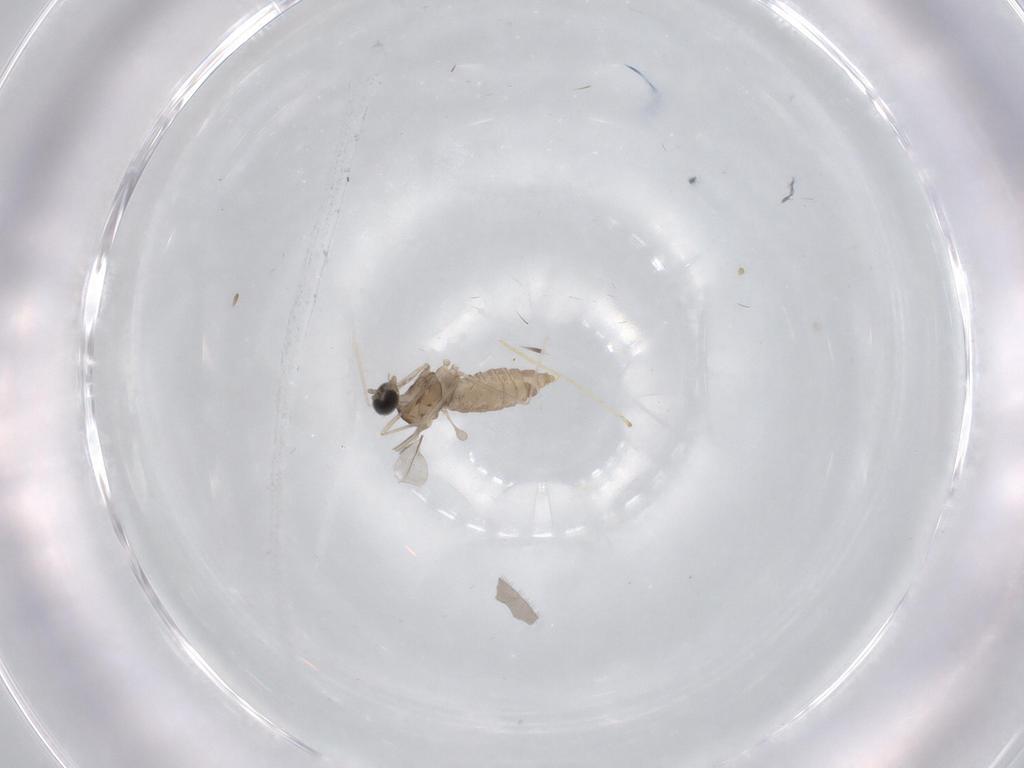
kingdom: Animalia
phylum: Arthropoda
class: Insecta
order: Diptera
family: Cecidomyiidae
